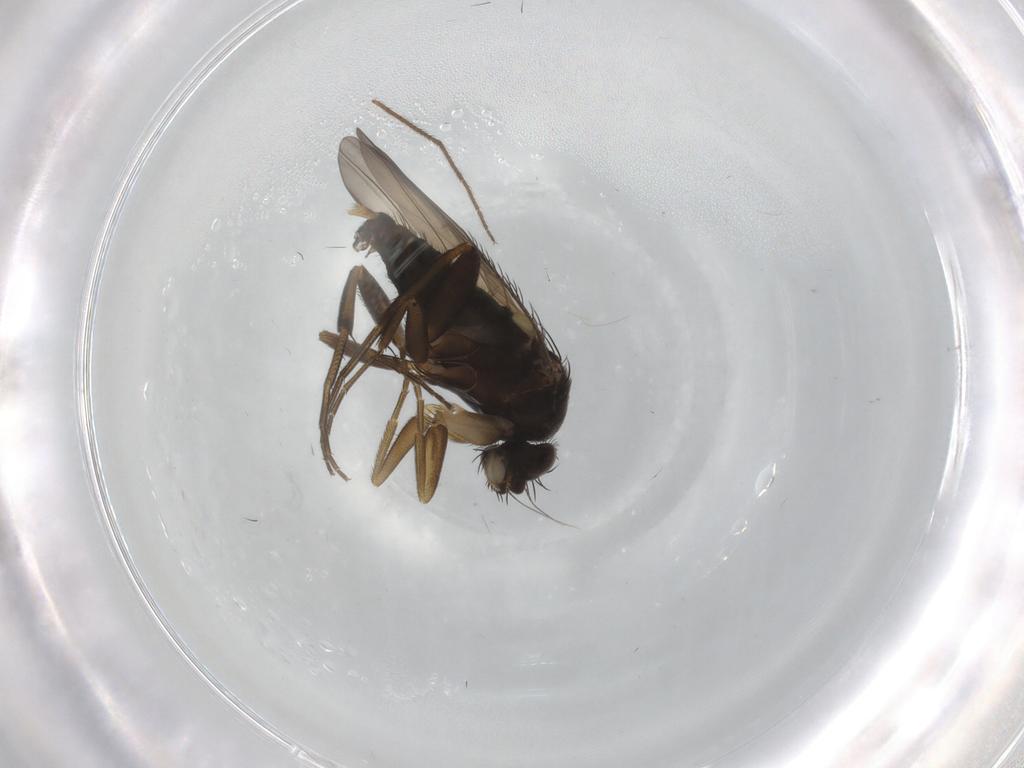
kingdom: Animalia
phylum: Arthropoda
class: Insecta
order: Diptera
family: Phoridae
